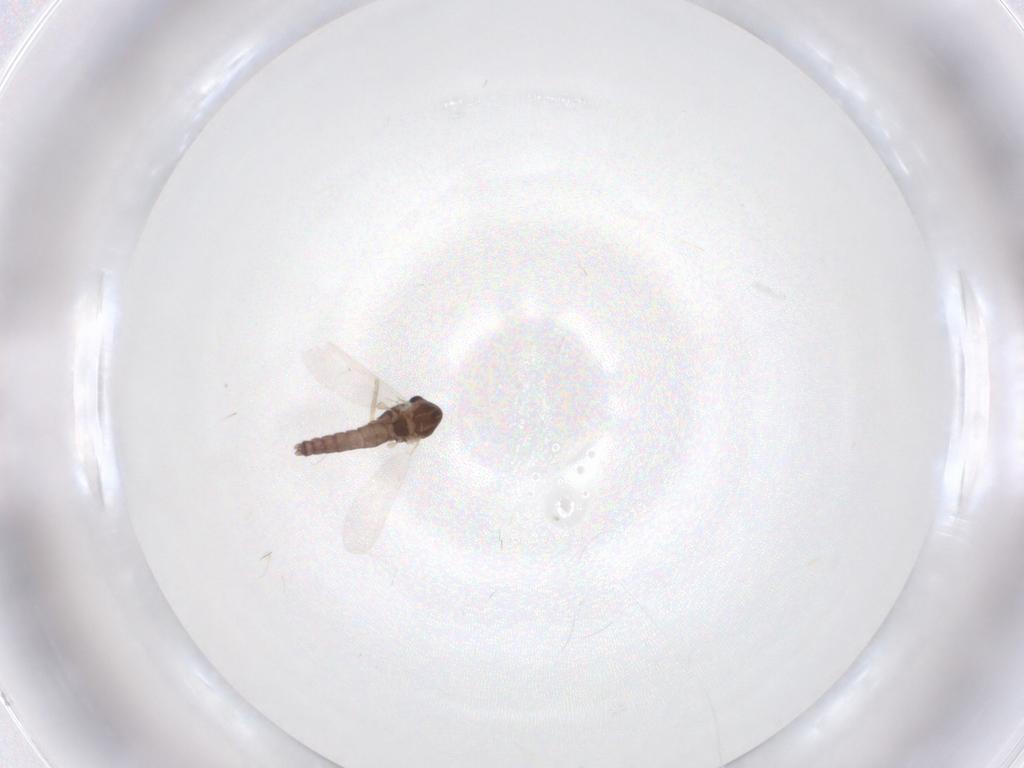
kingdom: Animalia
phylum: Arthropoda
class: Insecta
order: Diptera
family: Chironomidae
